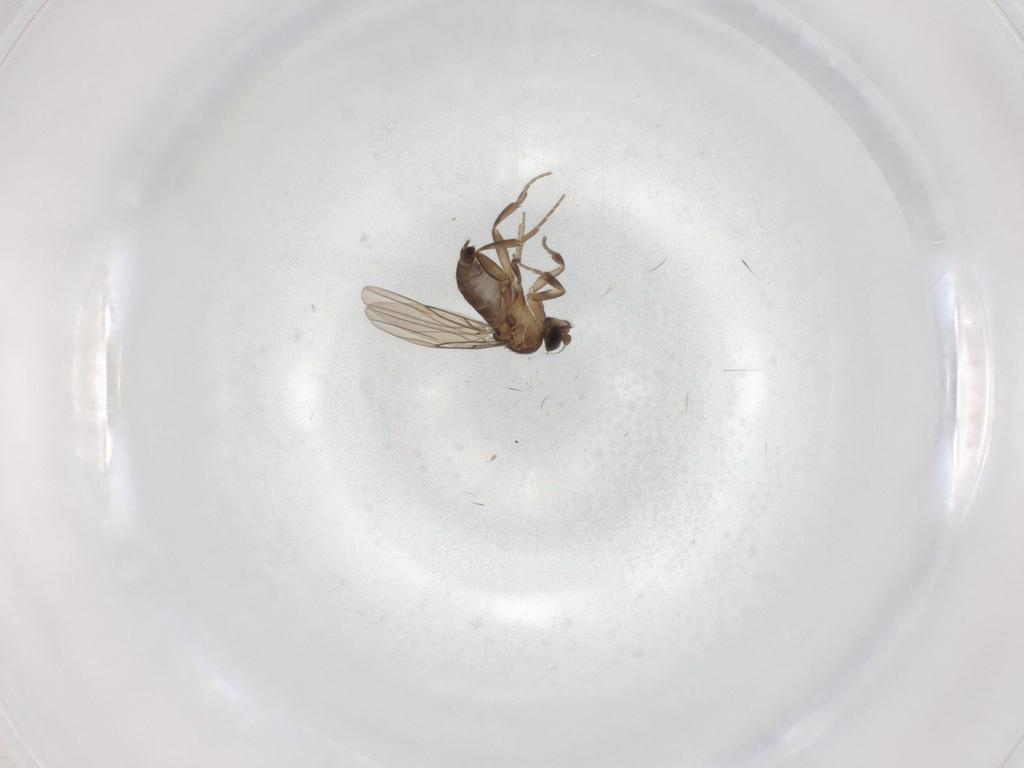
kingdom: Animalia
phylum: Arthropoda
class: Insecta
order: Diptera
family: Phoridae
